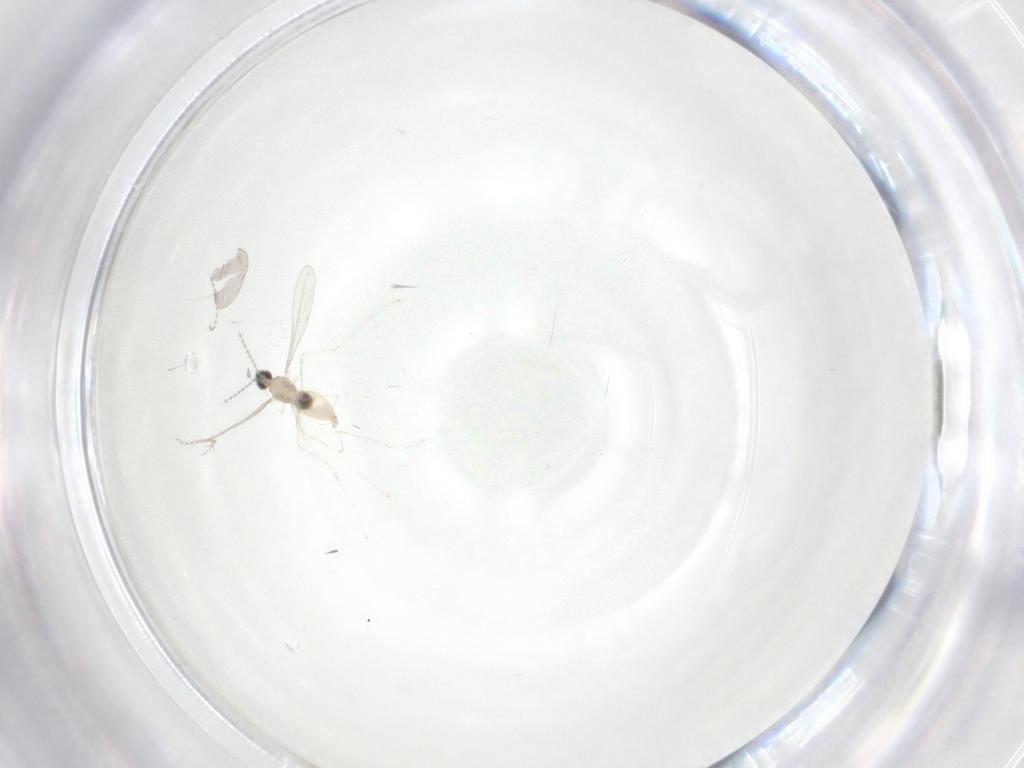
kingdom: Animalia
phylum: Arthropoda
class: Insecta
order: Diptera
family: Cecidomyiidae
